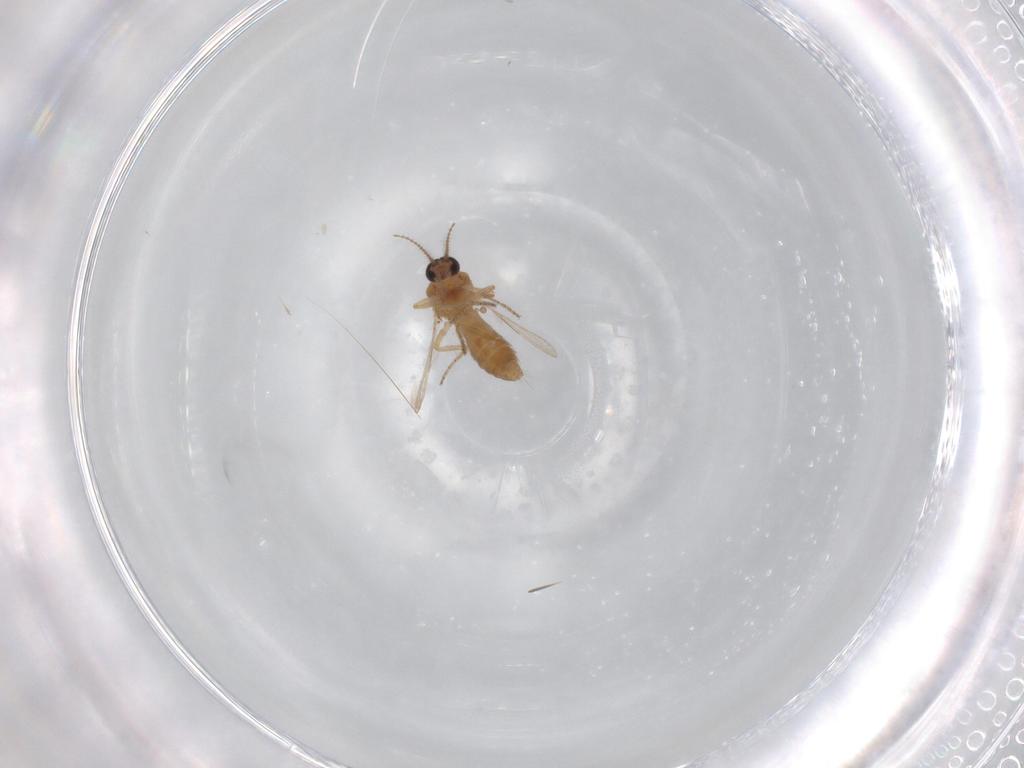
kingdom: Animalia
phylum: Arthropoda
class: Insecta
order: Diptera
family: Ceratopogonidae
